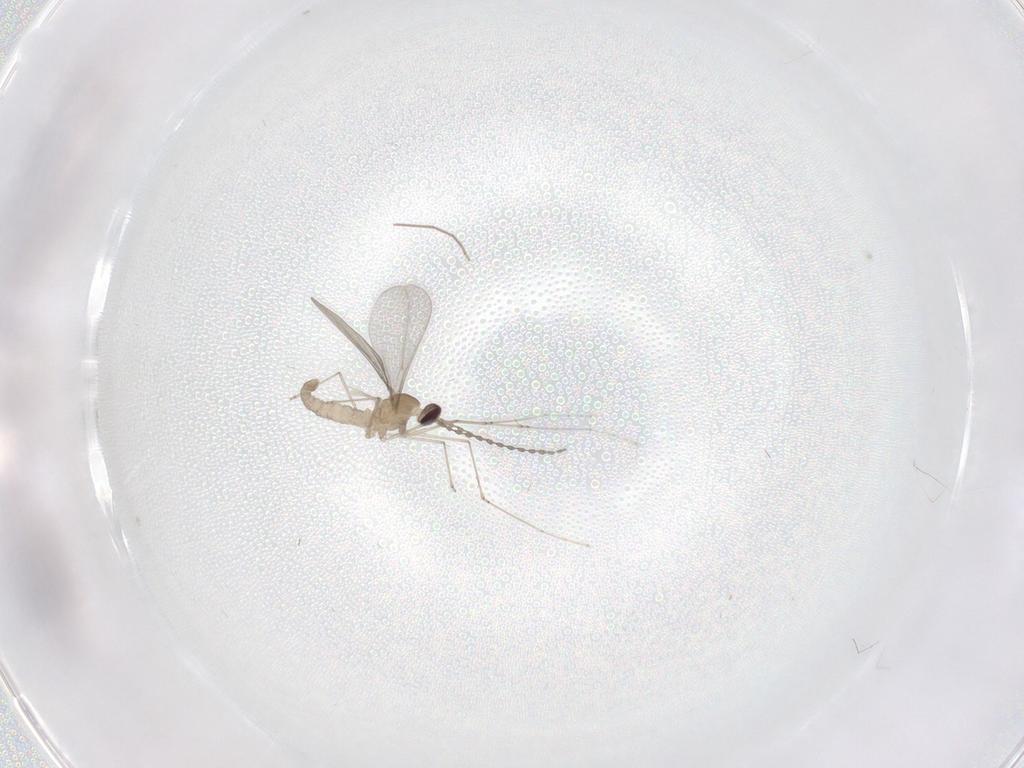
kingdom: Animalia
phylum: Arthropoda
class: Insecta
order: Diptera
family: Cecidomyiidae
